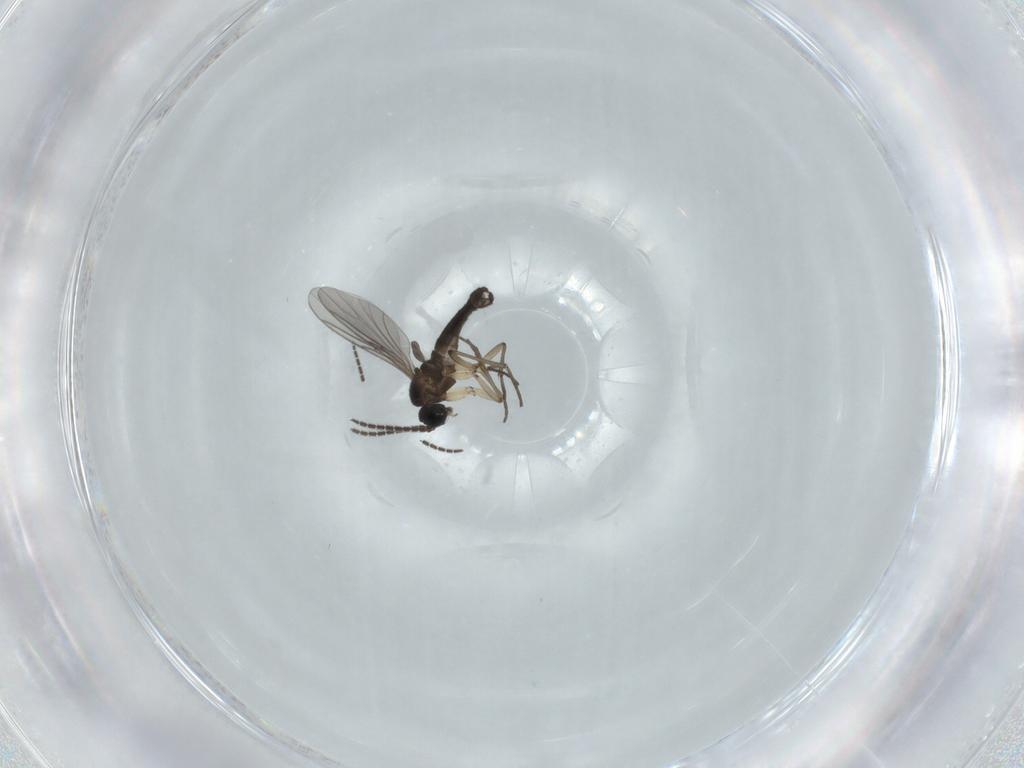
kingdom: Animalia
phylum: Arthropoda
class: Insecta
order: Diptera
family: Sciaridae
